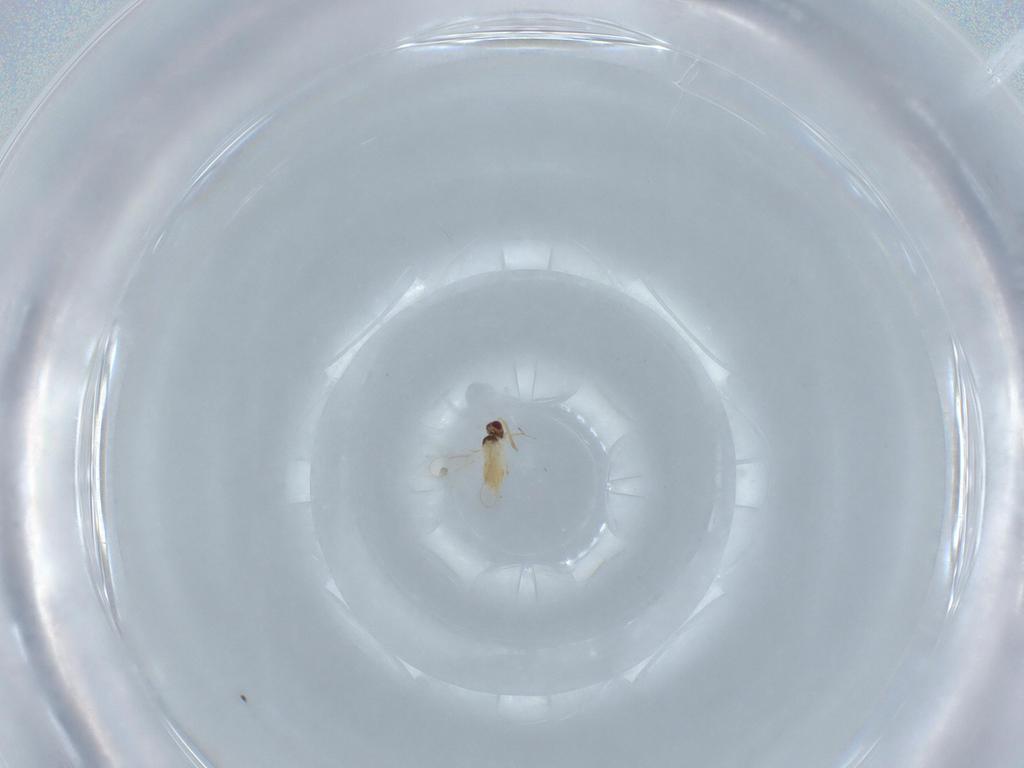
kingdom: Animalia
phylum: Arthropoda
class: Insecta
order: Hymenoptera
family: Aphelinidae
